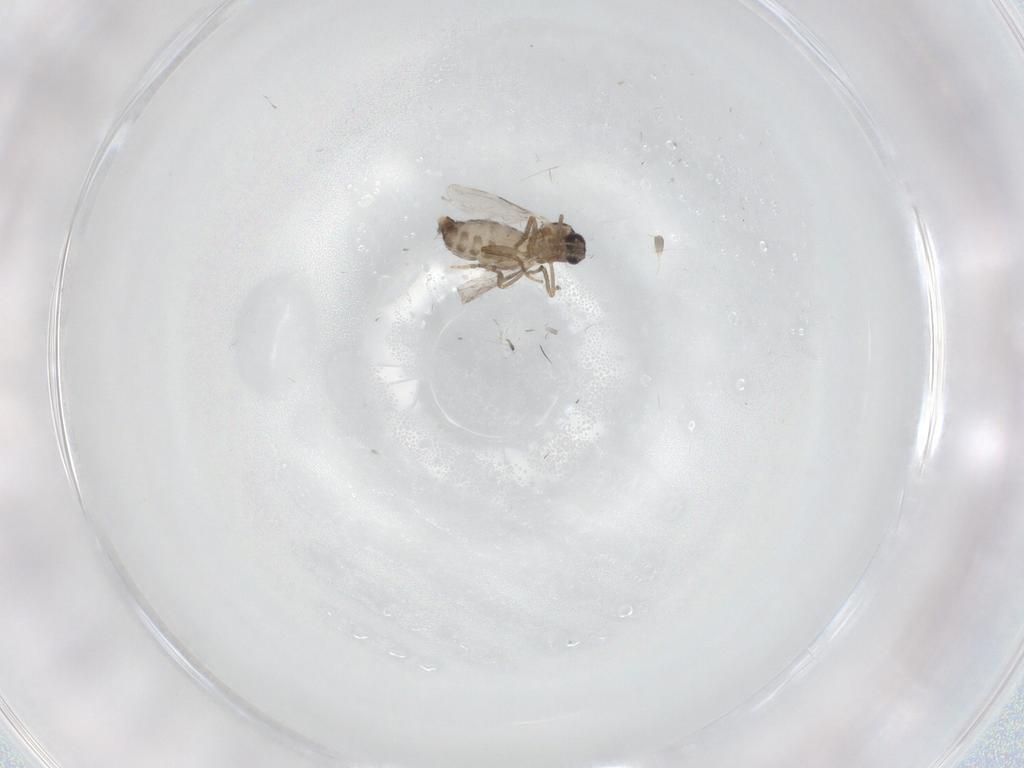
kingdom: Animalia
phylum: Arthropoda
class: Insecta
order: Diptera
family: Ceratopogonidae
